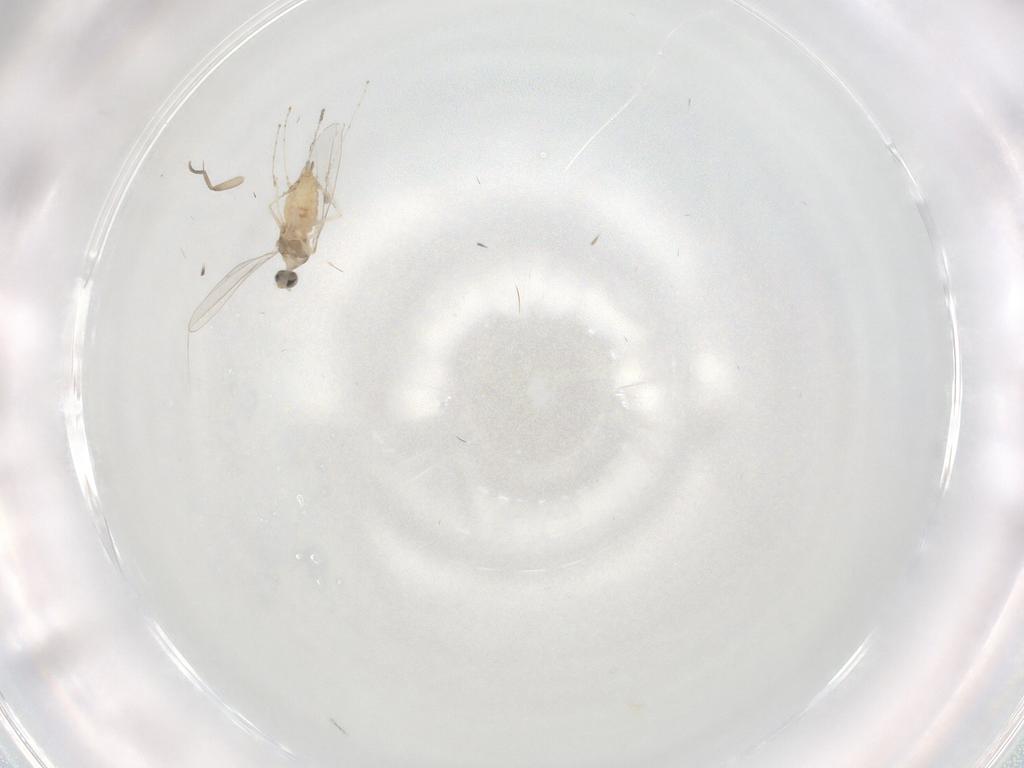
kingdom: Animalia
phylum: Arthropoda
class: Insecta
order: Diptera
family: Cecidomyiidae
